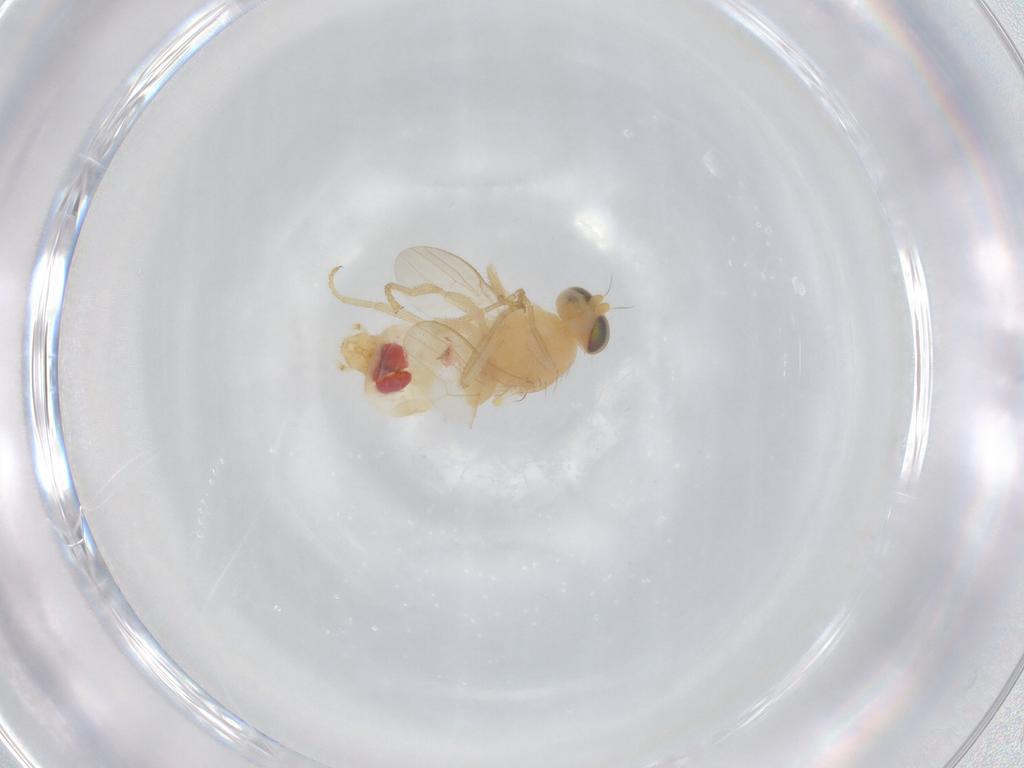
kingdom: Animalia
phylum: Arthropoda
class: Insecta
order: Diptera
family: Chyromyidae
